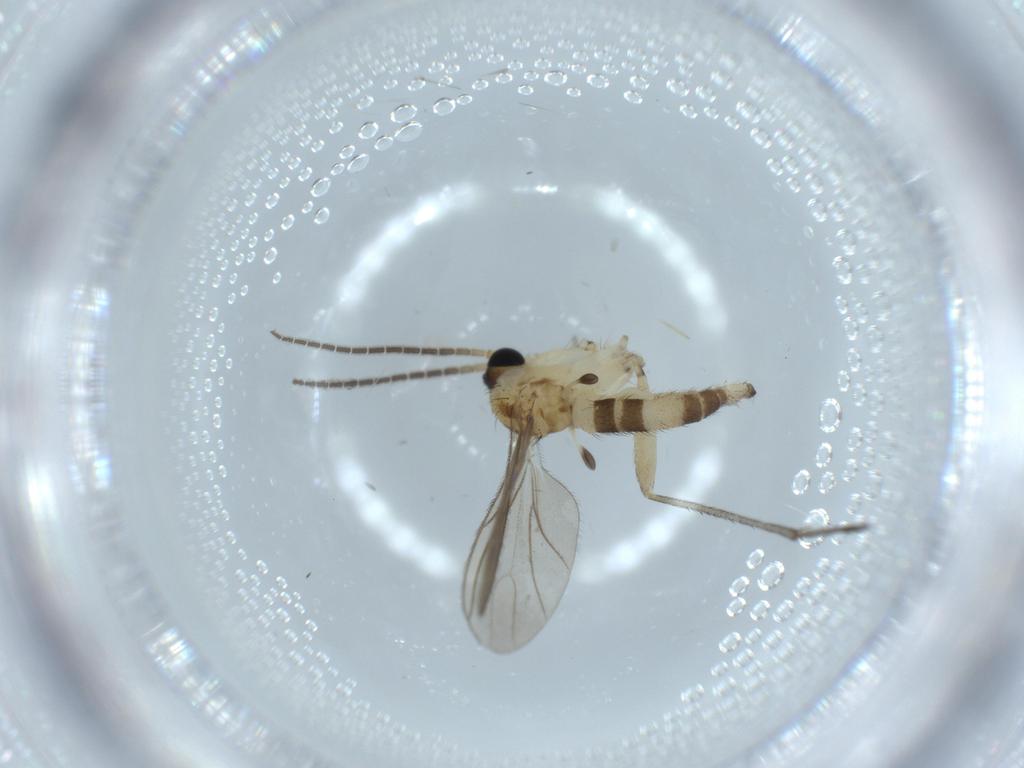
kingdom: Animalia
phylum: Arthropoda
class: Insecta
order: Diptera
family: Sciaridae
